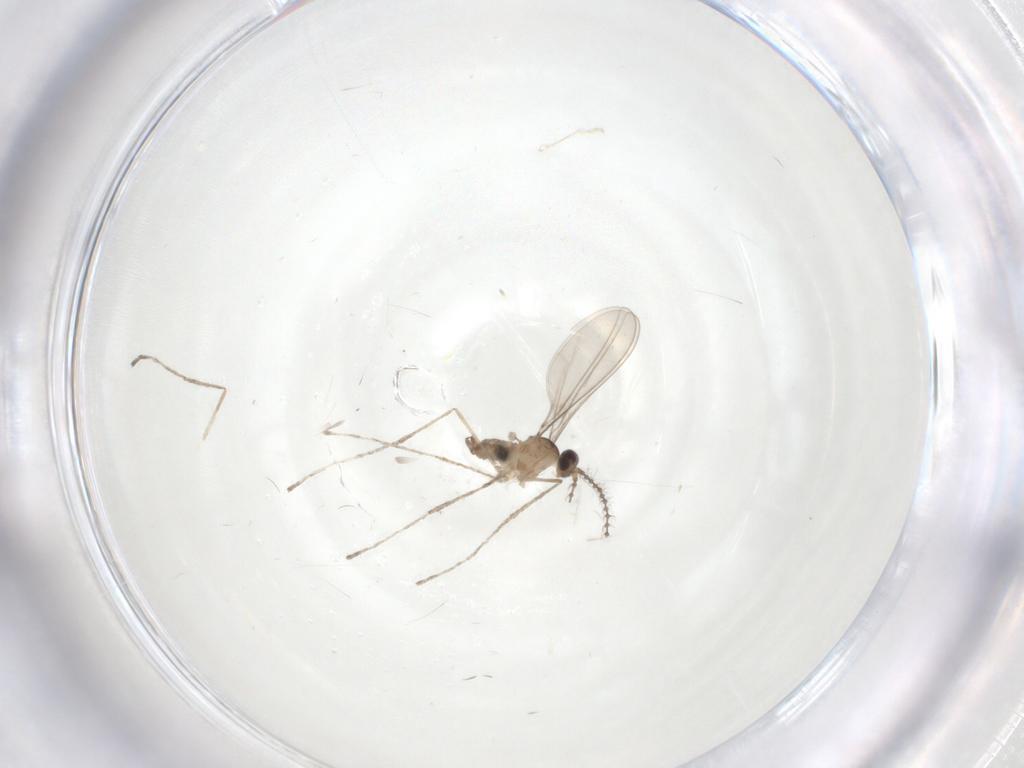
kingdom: Animalia
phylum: Arthropoda
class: Insecta
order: Diptera
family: Cecidomyiidae
